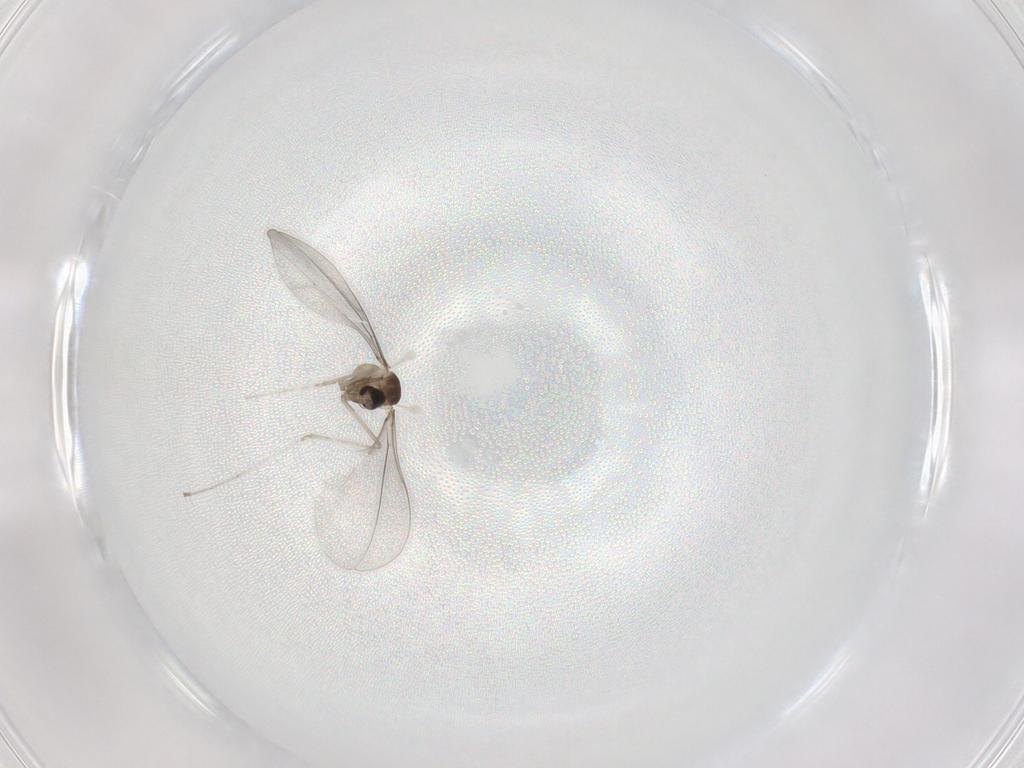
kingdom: Animalia
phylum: Arthropoda
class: Insecta
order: Diptera
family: Cecidomyiidae
